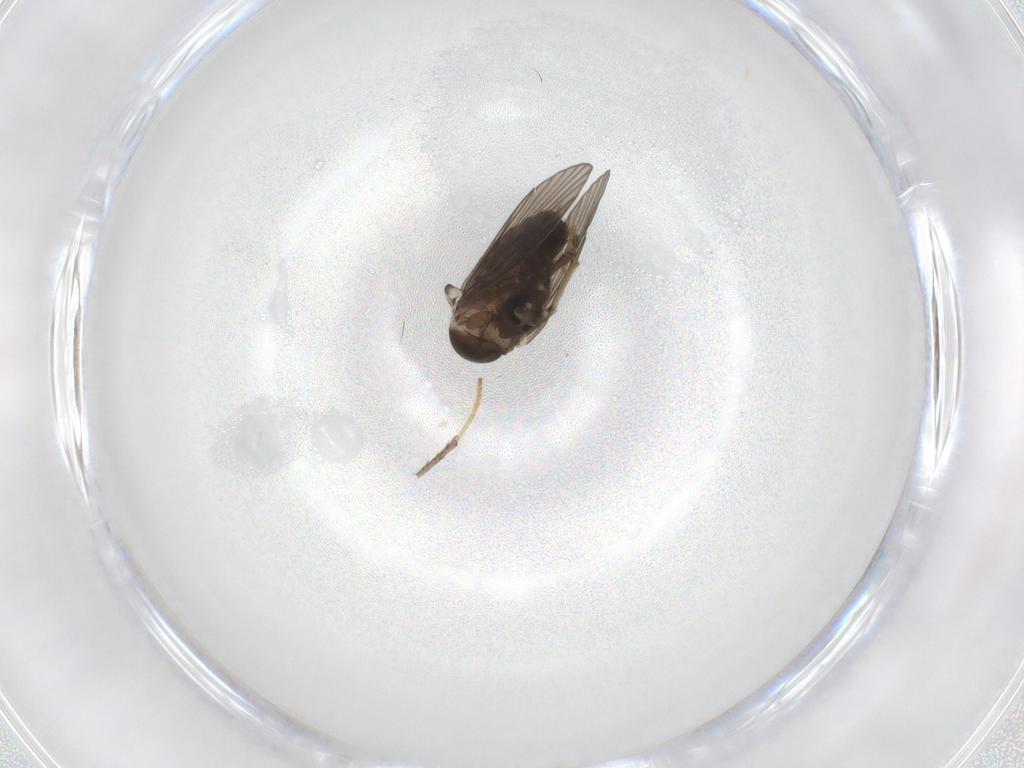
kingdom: Animalia
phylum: Arthropoda
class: Insecta
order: Diptera
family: Psychodidae
